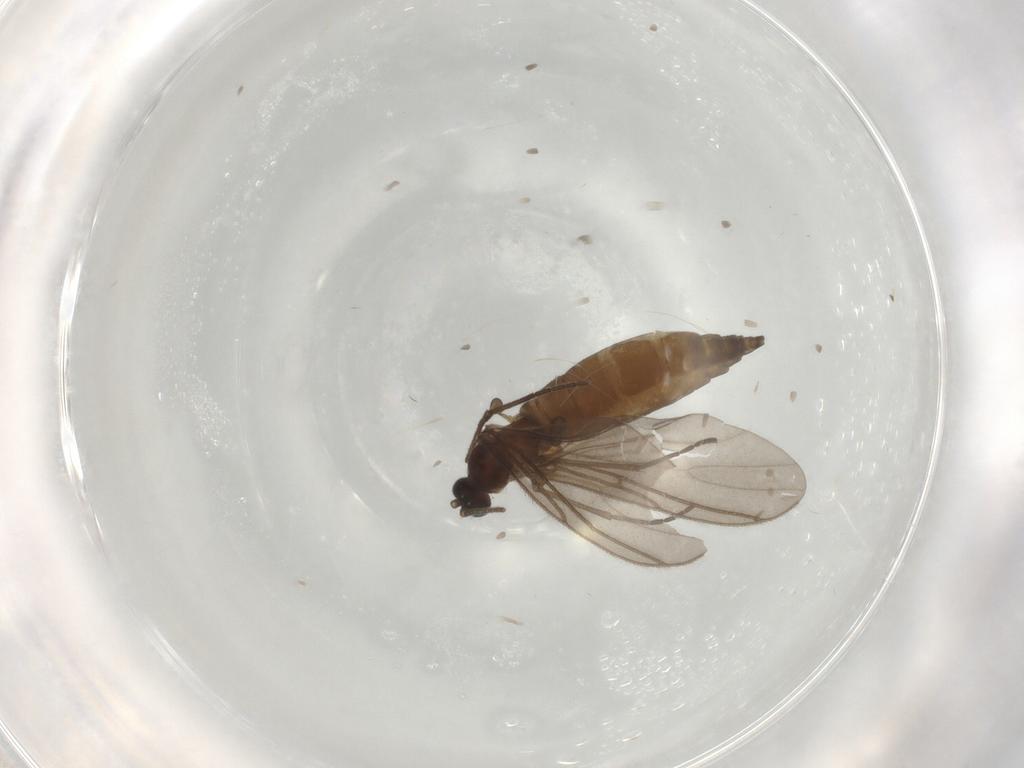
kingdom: Animalia
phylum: Arthropoda
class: Insecta
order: Diptera
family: Sciaridae
